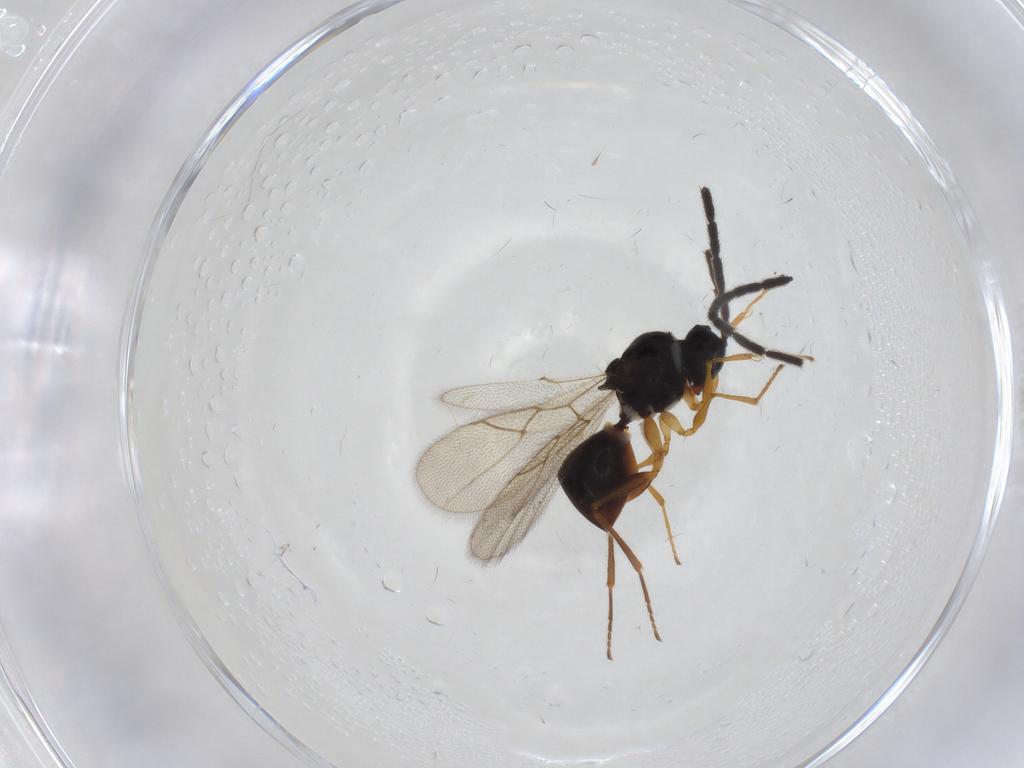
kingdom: Animalia
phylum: Arthropoda
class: Insecta
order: Hymenoptera
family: Figitidae
